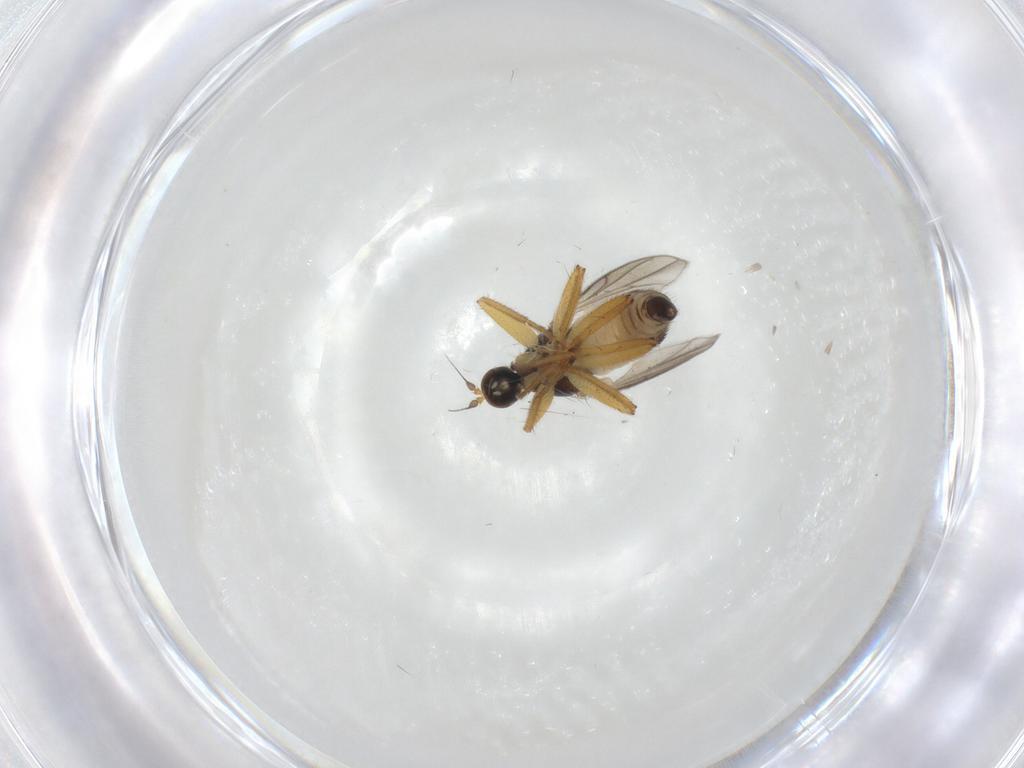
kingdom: Animalia
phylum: Arthropoda
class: Insecta
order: Diptera
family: Hybotidae
